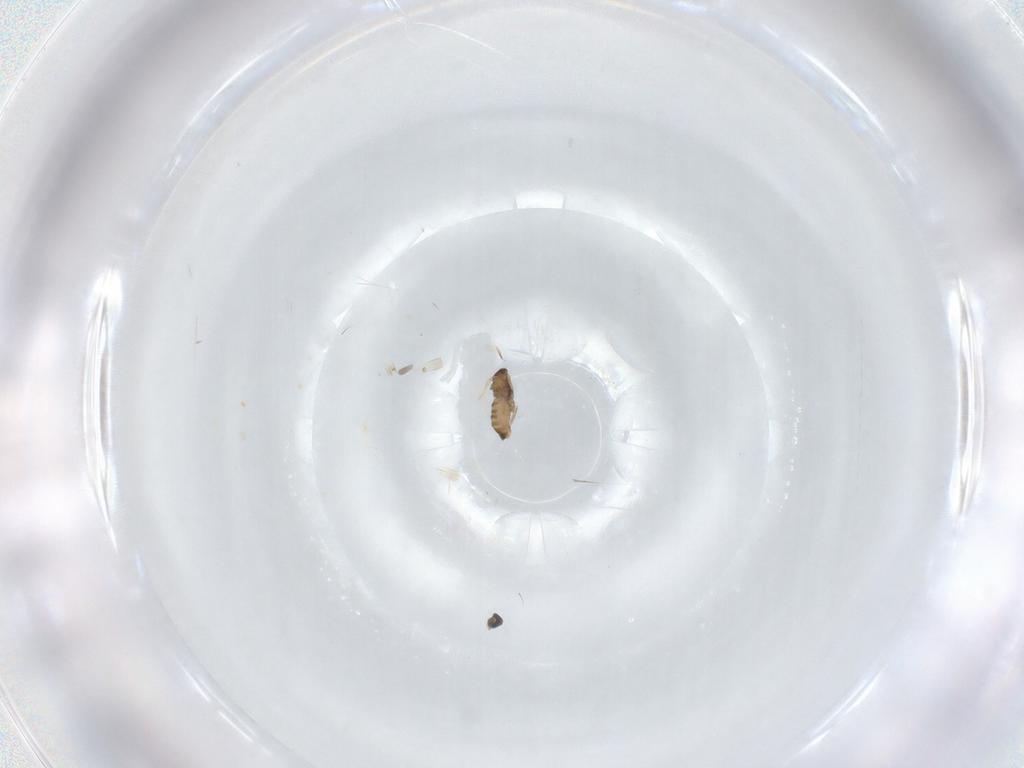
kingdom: Animalia
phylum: Arthropoda
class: Insecta
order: Diptera
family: Cecidomyiidae
